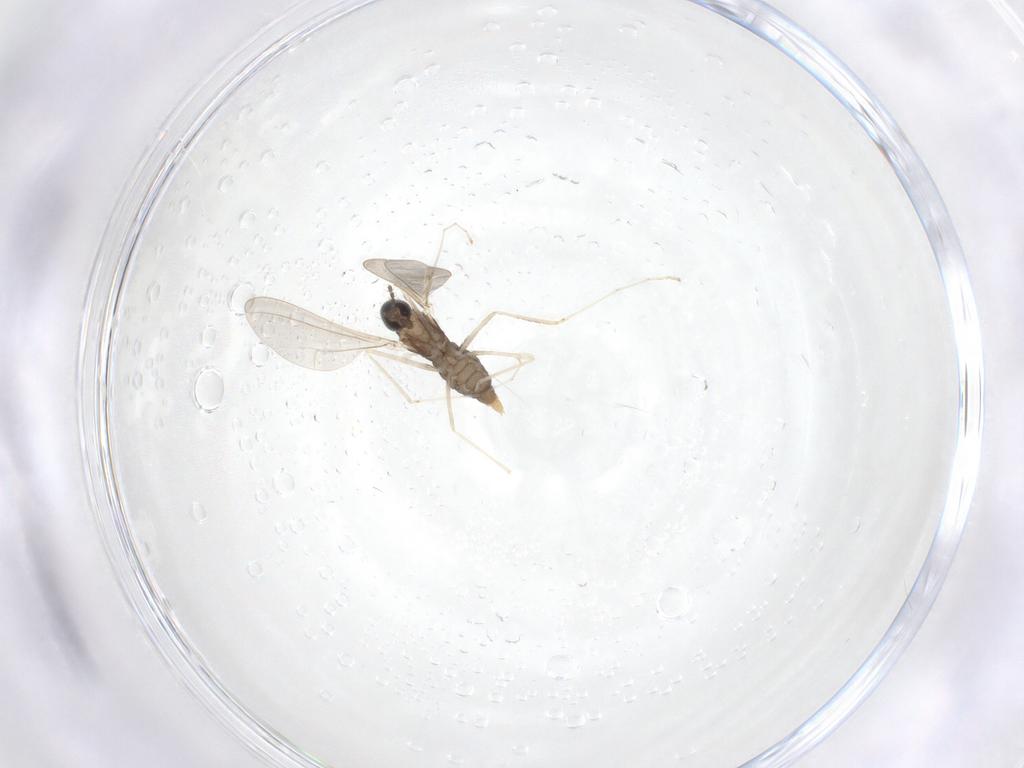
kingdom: Animalia
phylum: Arthropoda
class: Insecta
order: Diptera
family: Cecidomyiidae
